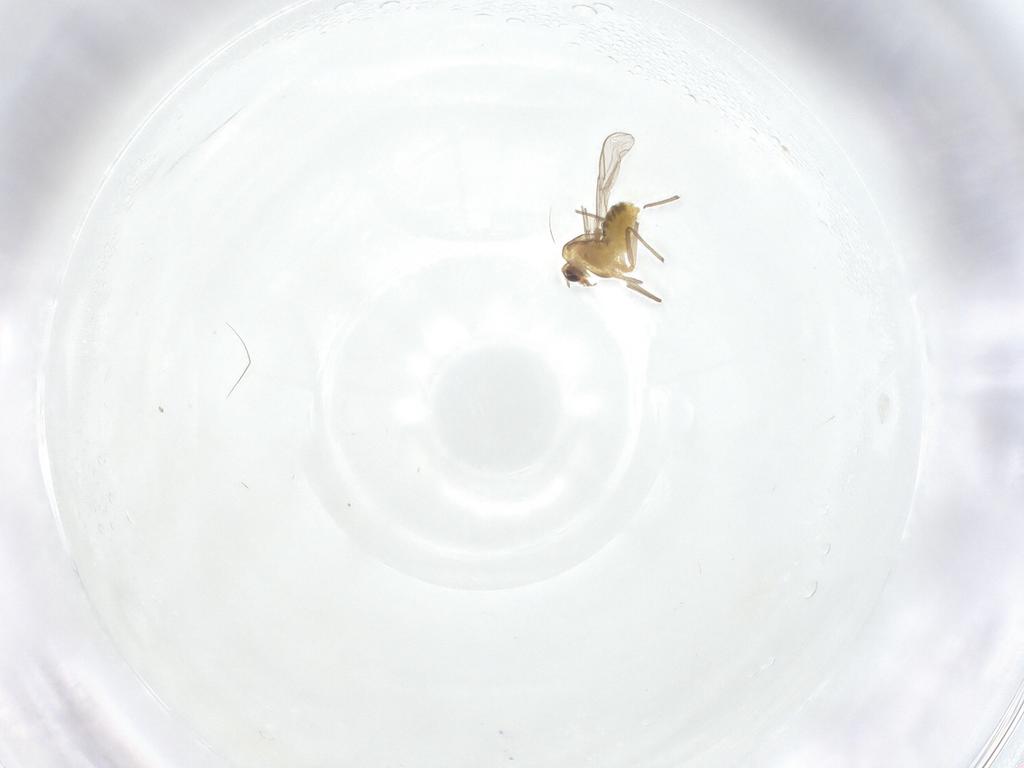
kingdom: Animalia
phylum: Arthropoda
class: Insecta
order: Diptera
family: Chironomidae
